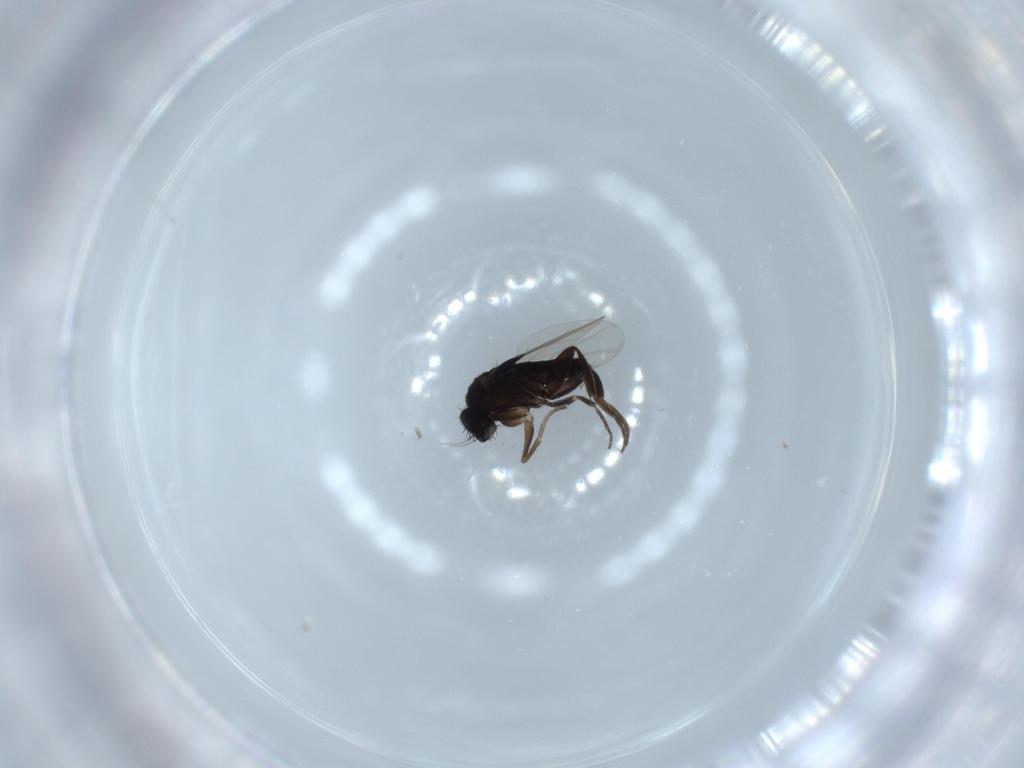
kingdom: Animalia
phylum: Arthropoda
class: Insecta
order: Diptera
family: Phoridae
